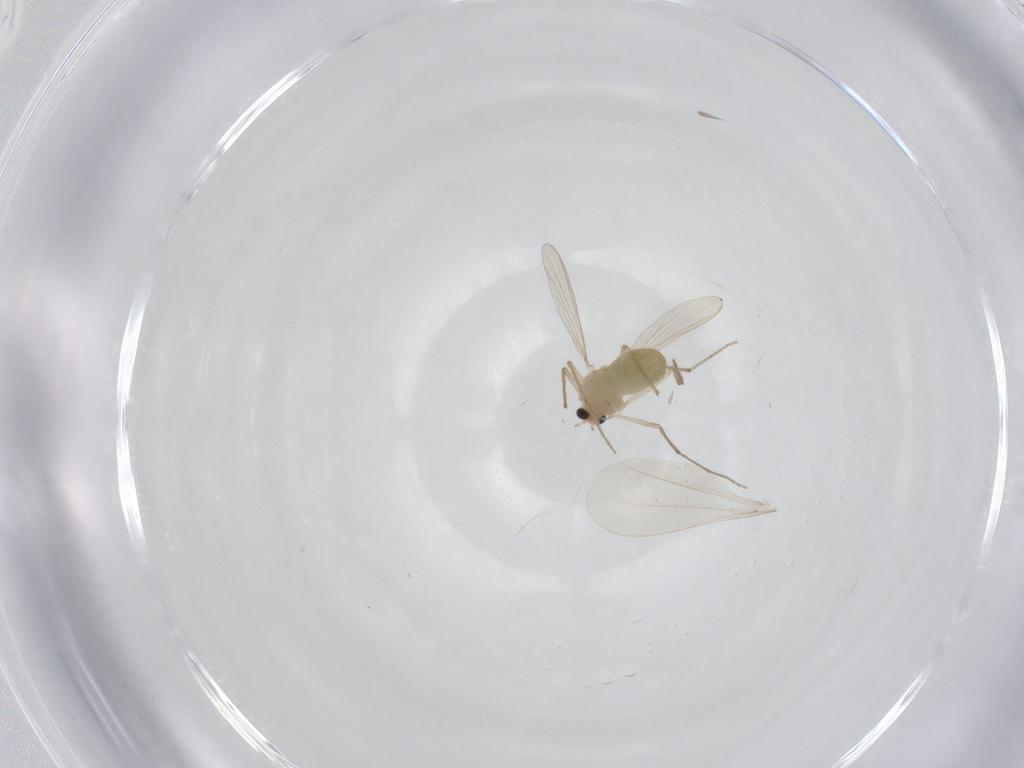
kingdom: Animalia
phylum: Arthropoda
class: Insecta
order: Diptera
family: Cecidomyiidae
